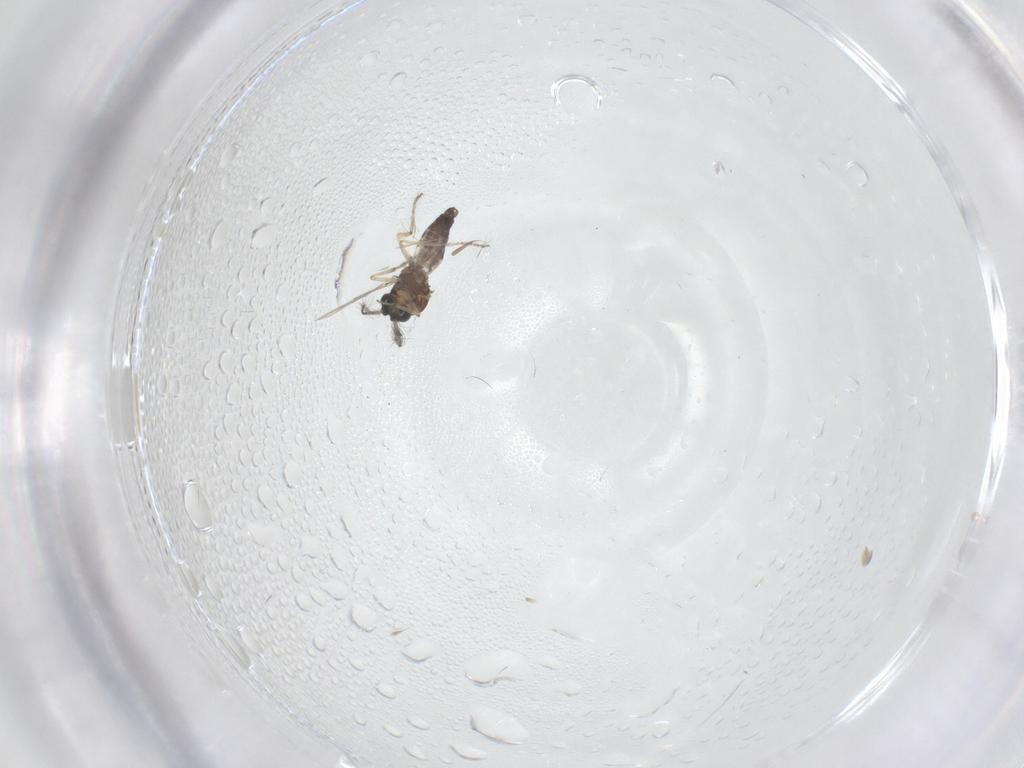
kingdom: Animalia
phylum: Arthropoda
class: Insecta
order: Diptera
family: Ceratopogonidae
